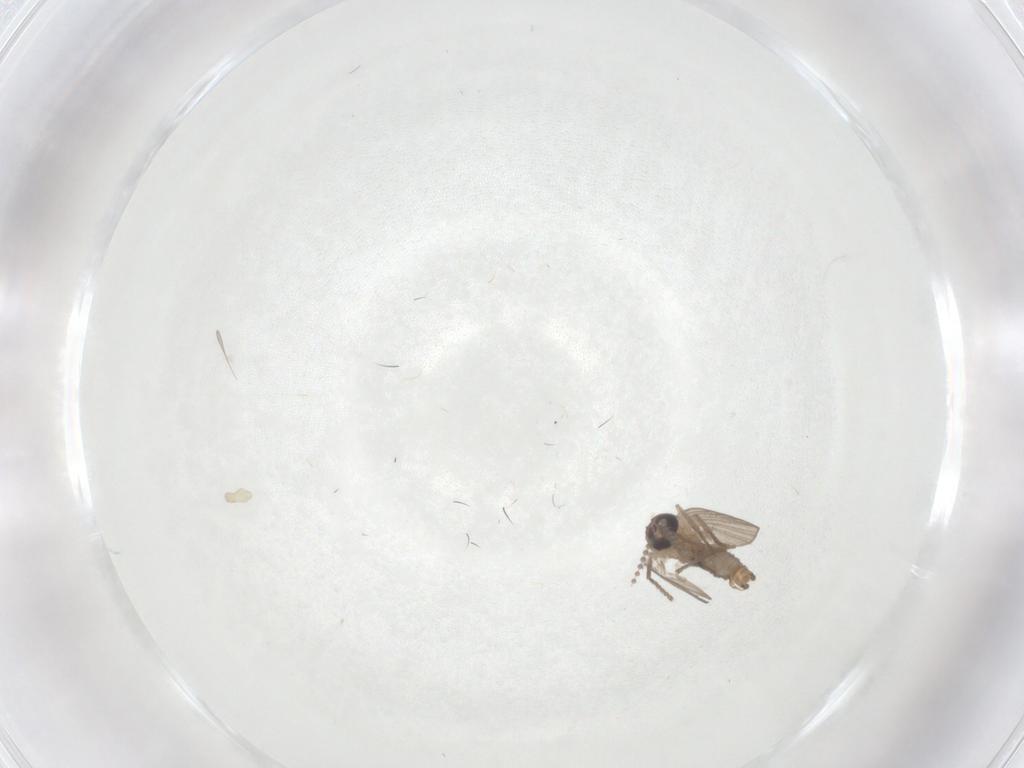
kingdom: Animalia
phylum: Arthropoda
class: Insecta
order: Diptera
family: Psychodidae
